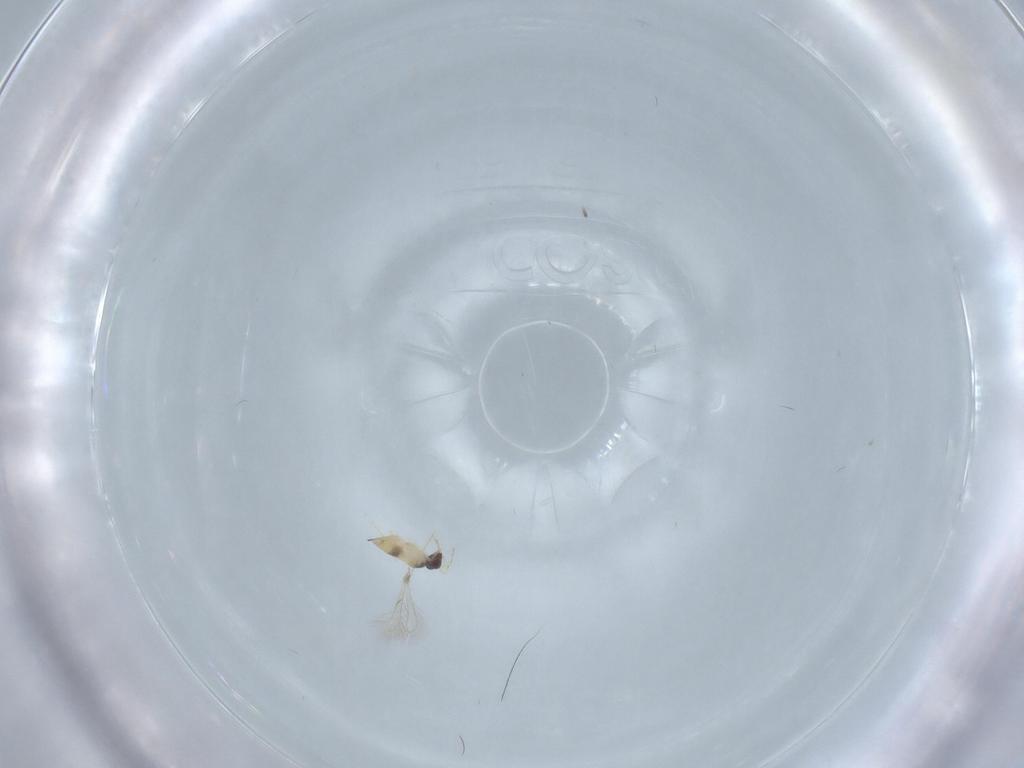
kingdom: Animalia
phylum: Arthropoda
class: Insecta
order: Hymenoptera
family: Mymaridae
